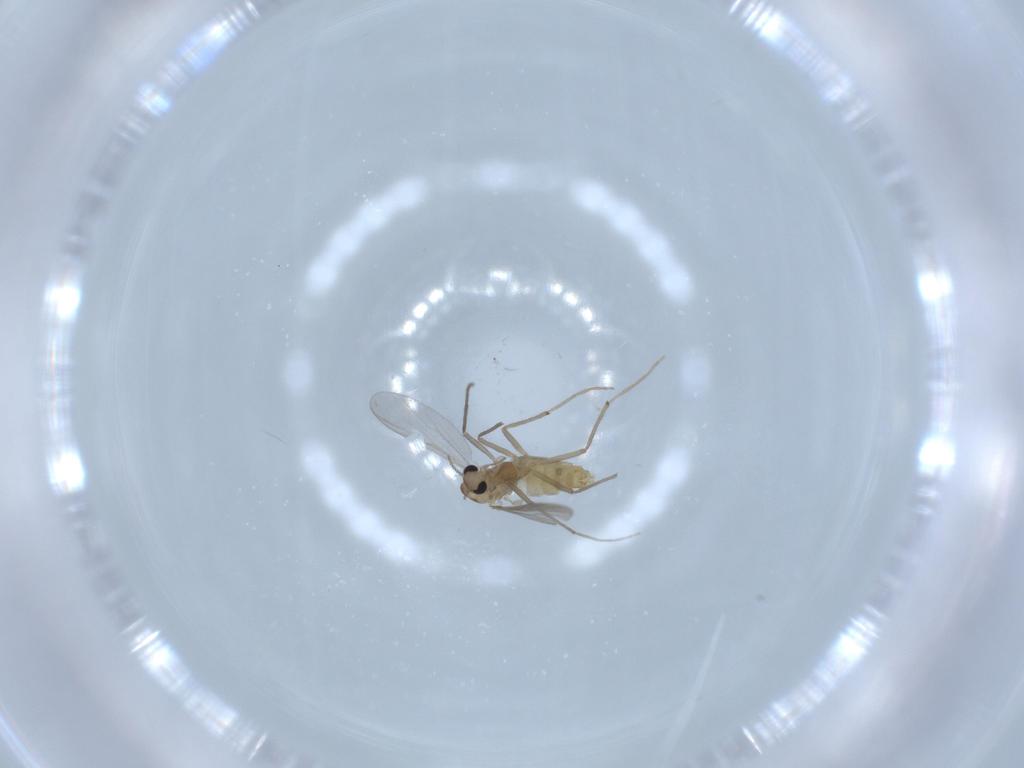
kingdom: Animalia
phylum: Arthropoda
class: Insecta
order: Diptera
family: Chironomidae
